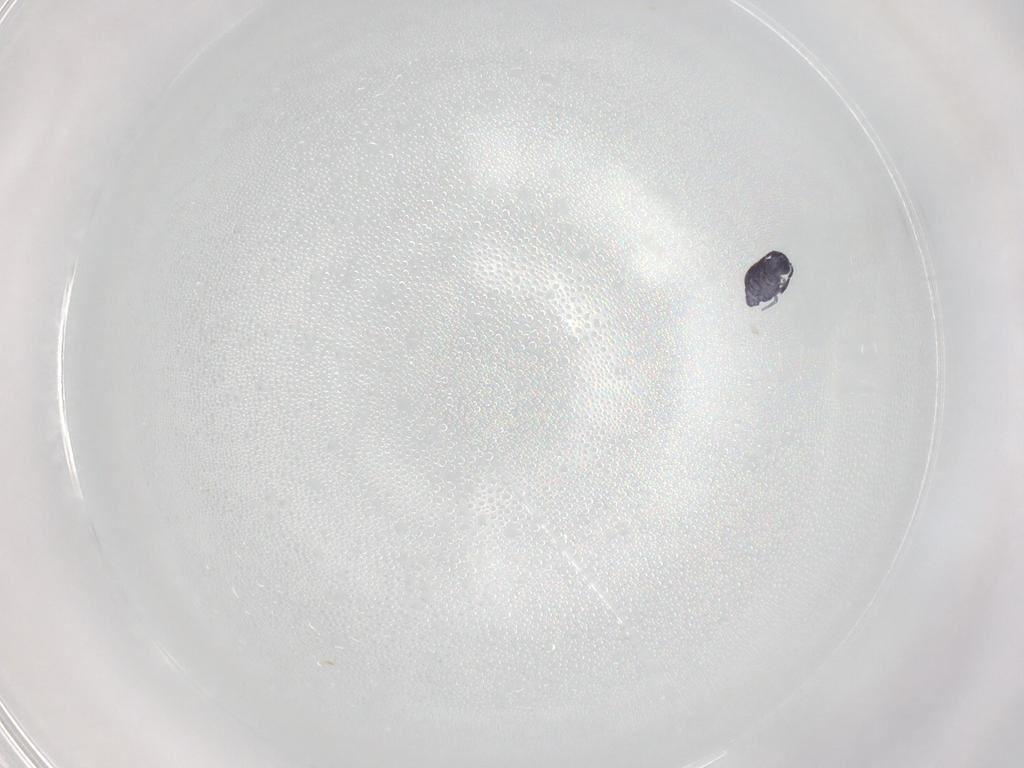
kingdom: Animalia
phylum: Arthropoda
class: Collembola
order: Symphypleona
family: Katiannidae
